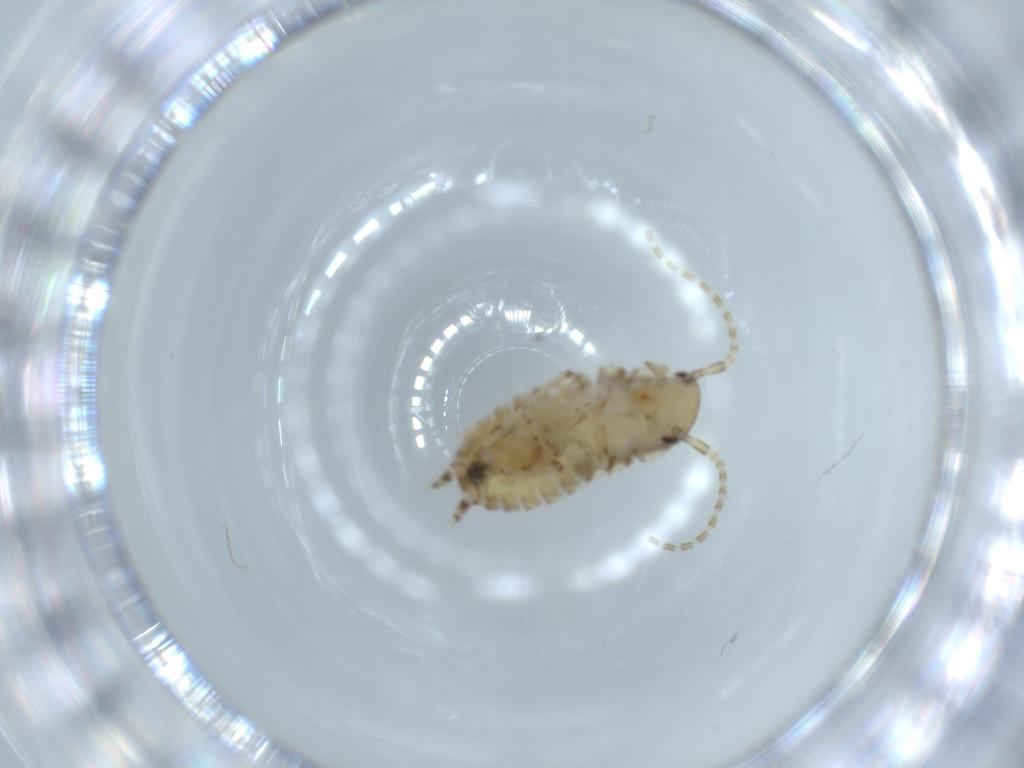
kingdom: Animalia
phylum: Arthropoda
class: Insecta
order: Blattodea
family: Ectobiidae
